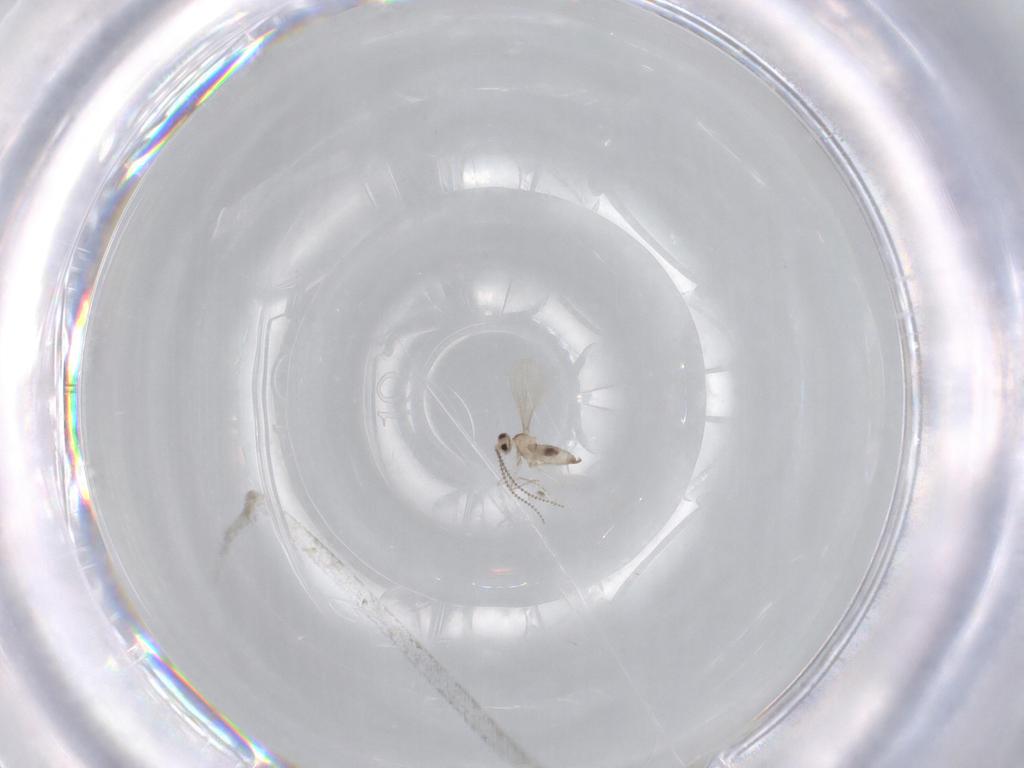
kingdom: Animalia
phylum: Arthropoda
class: Insecta
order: Diptera
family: Cecidomyiidae
